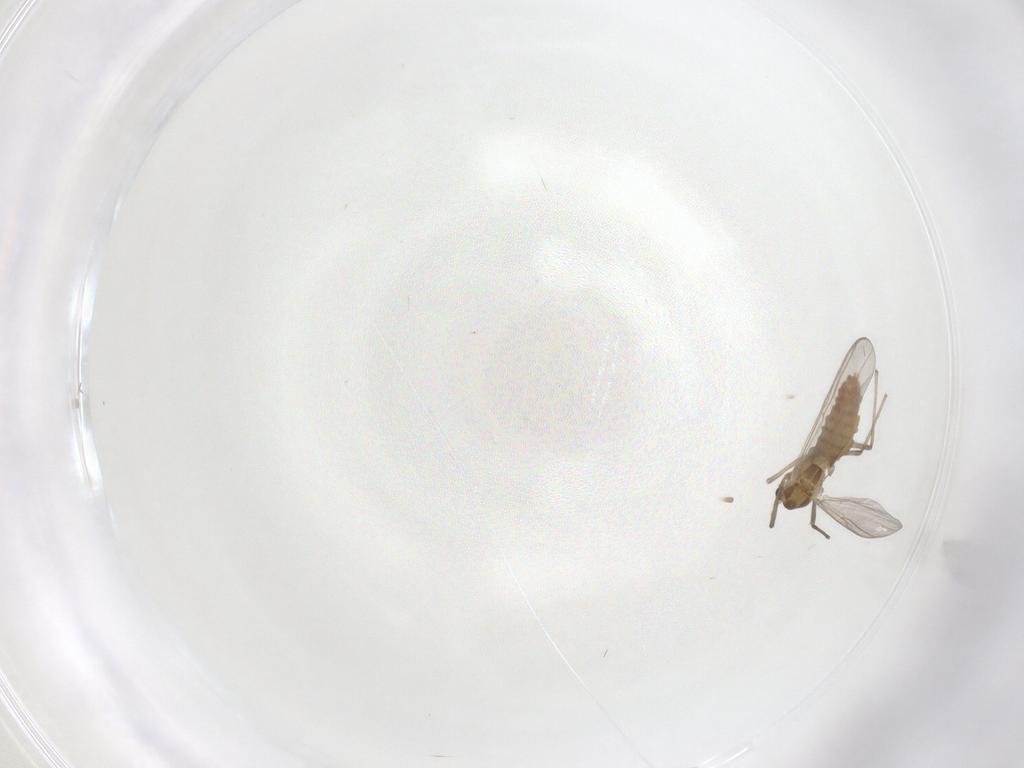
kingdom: Animalia
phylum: Arthropoda
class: Insecta
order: Diptera
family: Chironomidae
